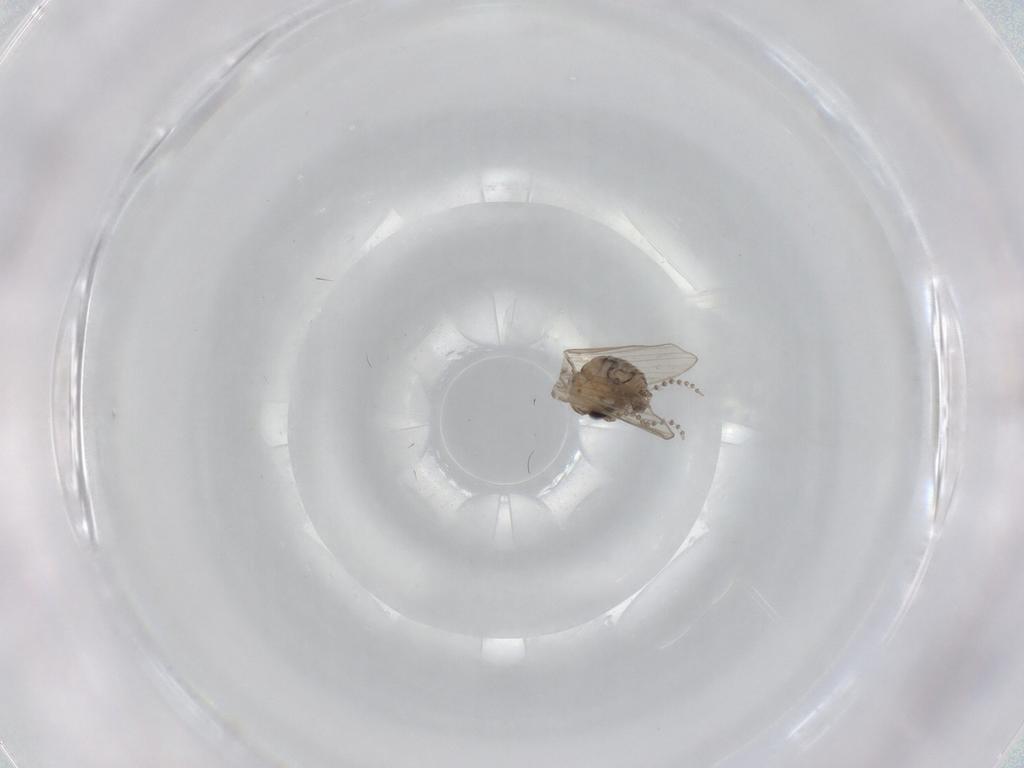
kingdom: Animalia
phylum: Arthropoda
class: Insecta
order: Diptera
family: Psychodidae
